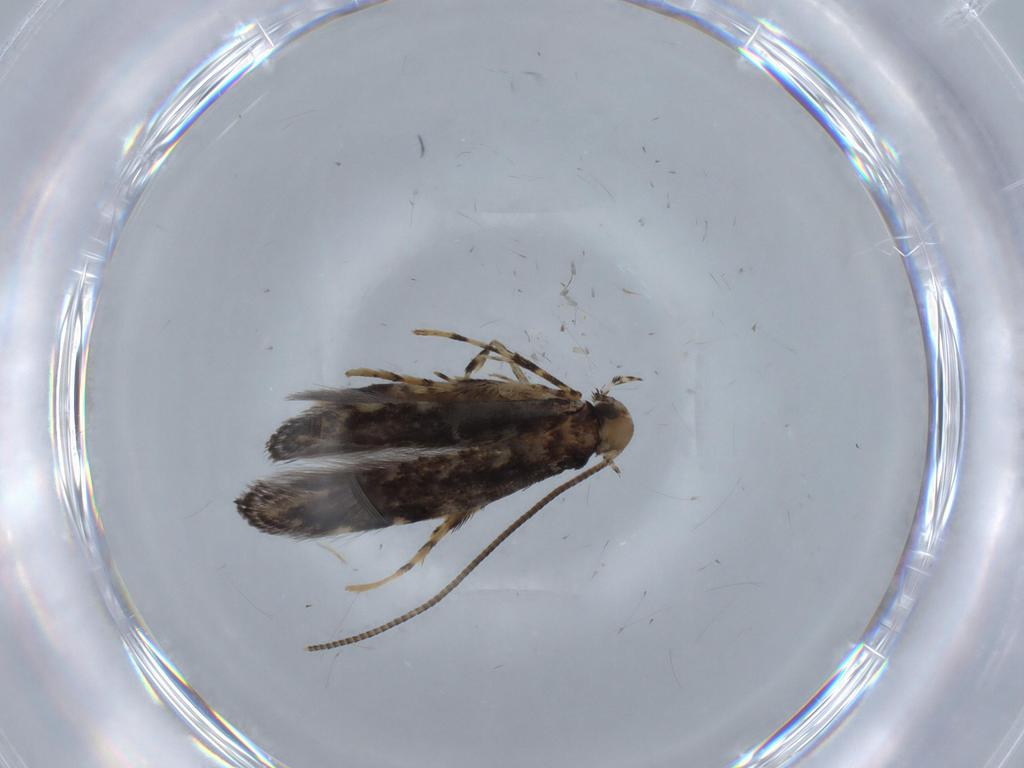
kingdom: Animalia
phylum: Arthropoda
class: Insecta
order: Lepidoptera
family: Gracillariidae
